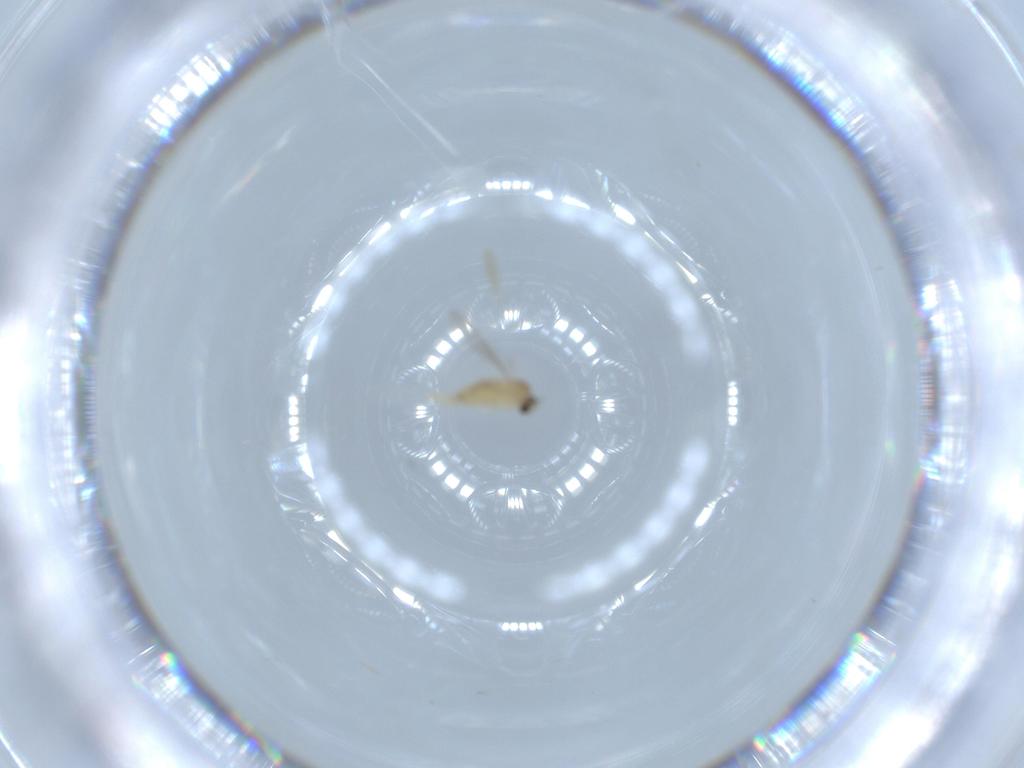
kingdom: Animalia
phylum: Arthropoda
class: Insecta
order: Diptera
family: Cecidomyiidae
